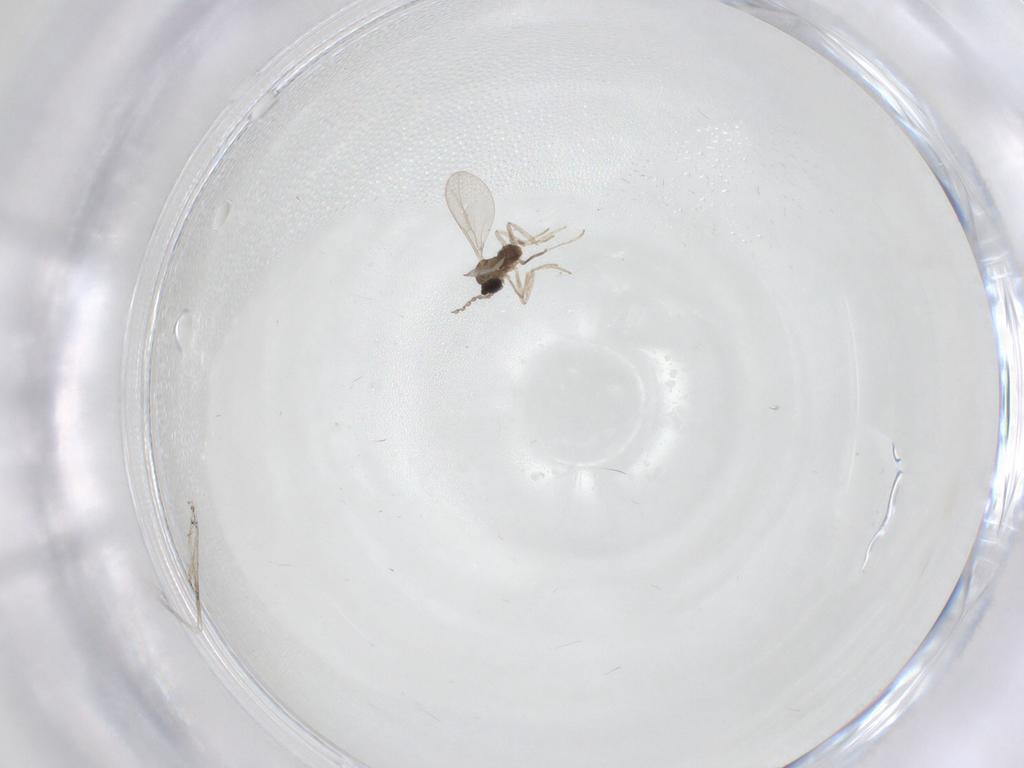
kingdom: Animalia
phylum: Arthropoda
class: Insecta
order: Diptera
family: Chironomidae
